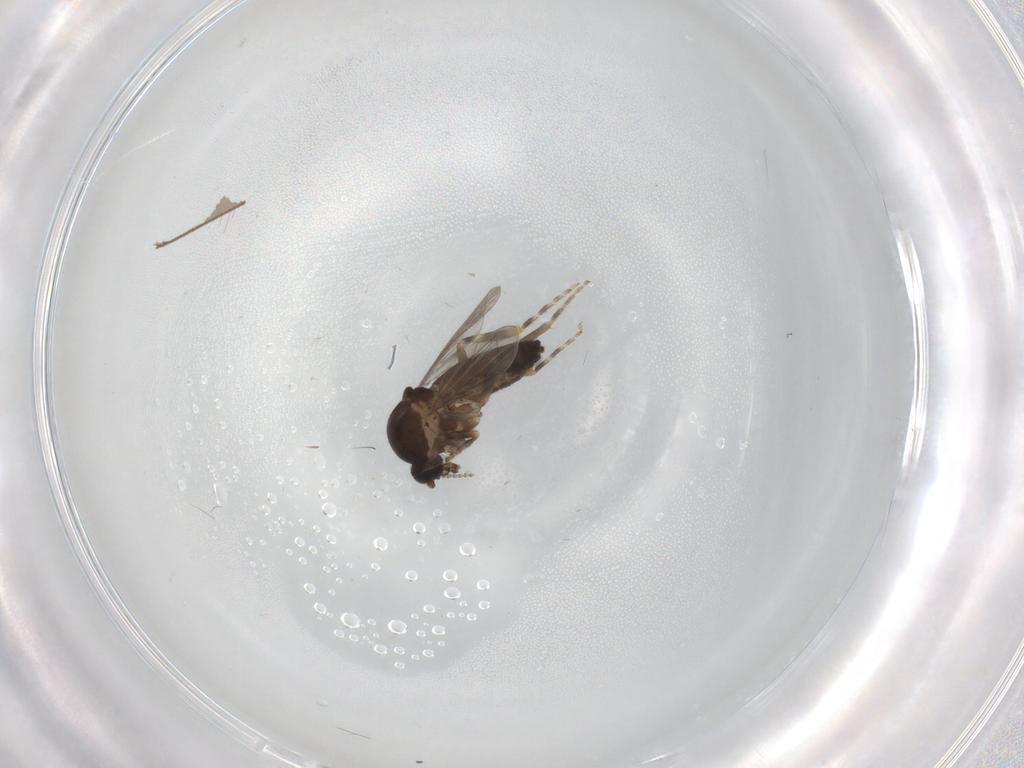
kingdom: Animalia
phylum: Arthropoda
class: Insecta
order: Diptera
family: Ceratopogonidae
